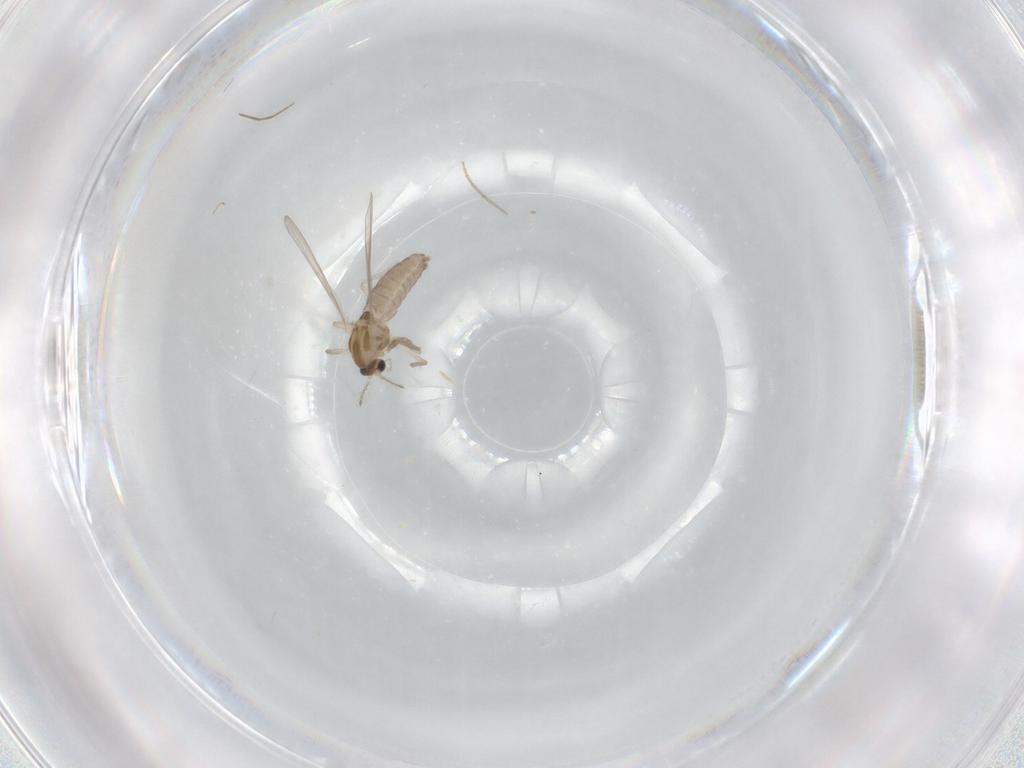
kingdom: Animalia
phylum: Arthropoda
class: Insecta
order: Diptera
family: Chironomidae
